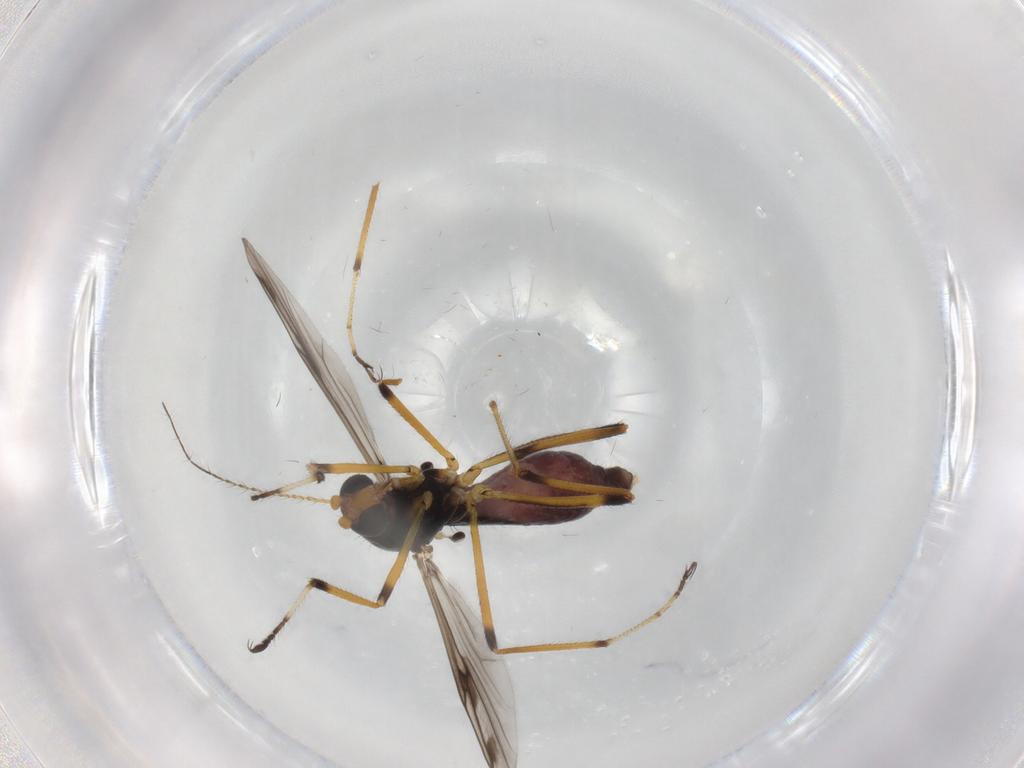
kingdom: Animalia
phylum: Arthropoda
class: Insecta
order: Diptera
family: Ceratopogonidae
